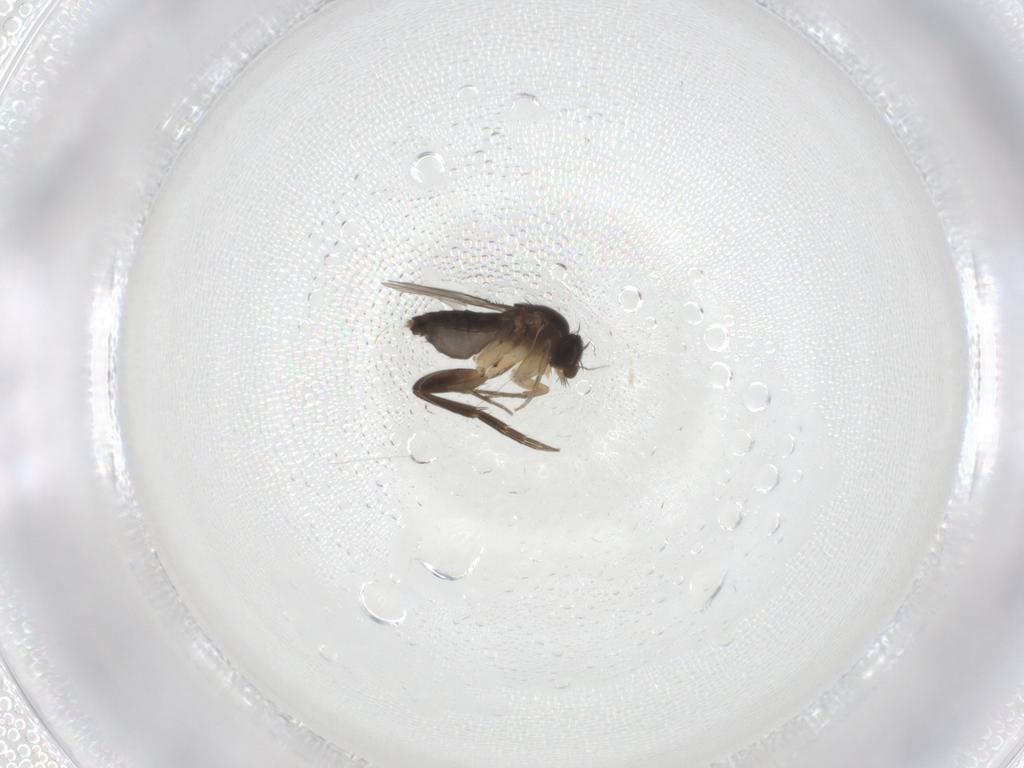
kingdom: Animalia
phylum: Arthropoda
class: Insecta
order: Diptera
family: Phoridae
